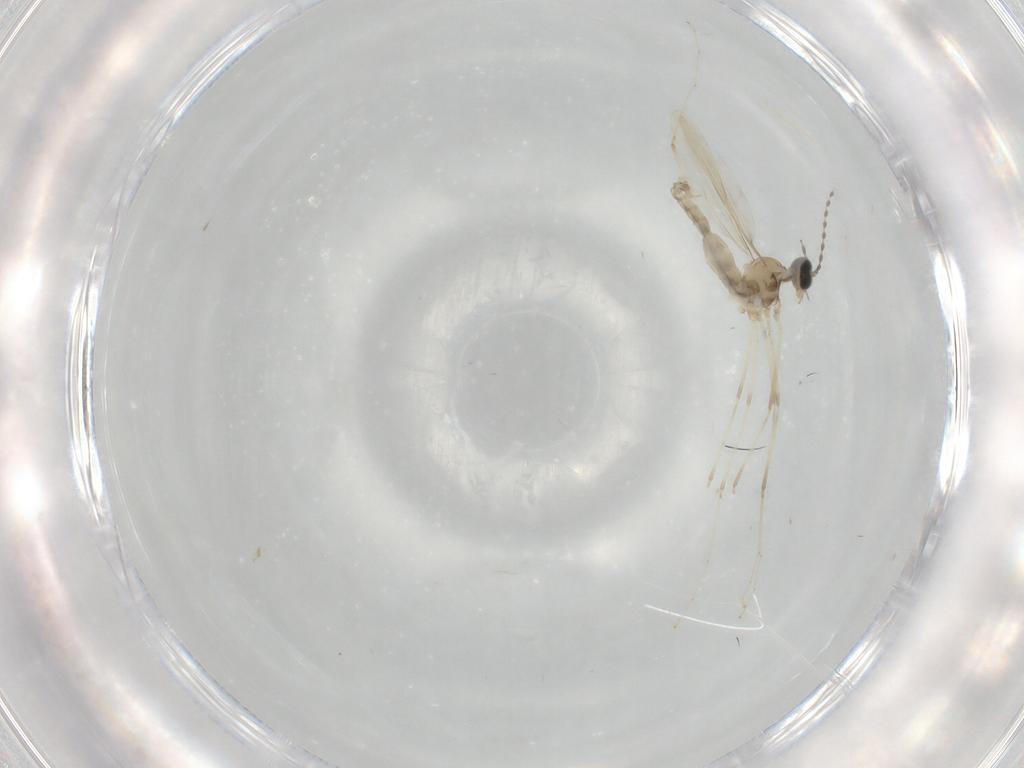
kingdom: Animalia
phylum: Arthropoda
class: Insecta
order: Diptera
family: Cecidomyiidae
